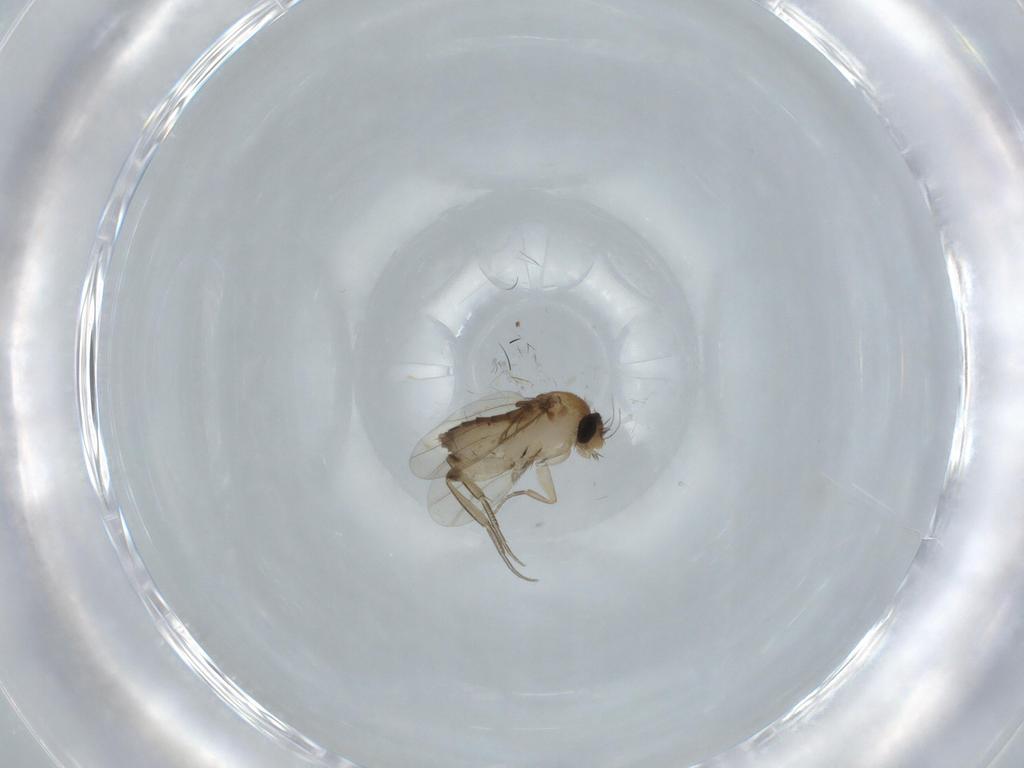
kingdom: Animalia
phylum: Arthropoda
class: Insecta
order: Diptera
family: Phoridae
